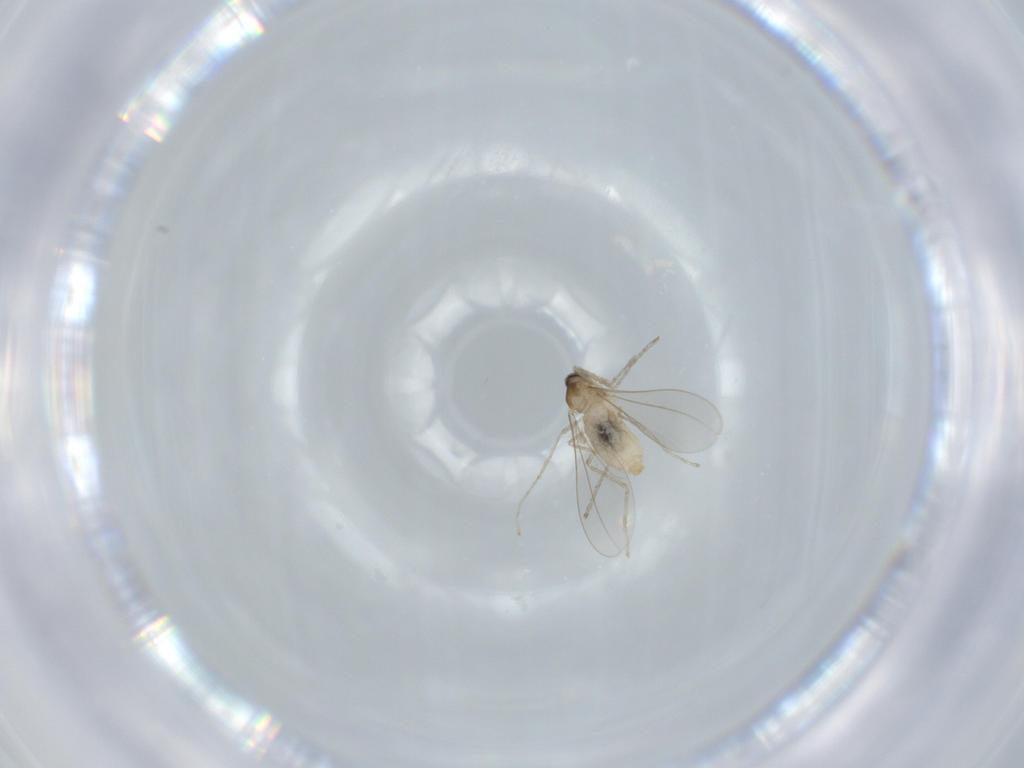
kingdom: Animalia
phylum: Arthropoda
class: Insecta
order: Diptera
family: Cecidomyiidae
